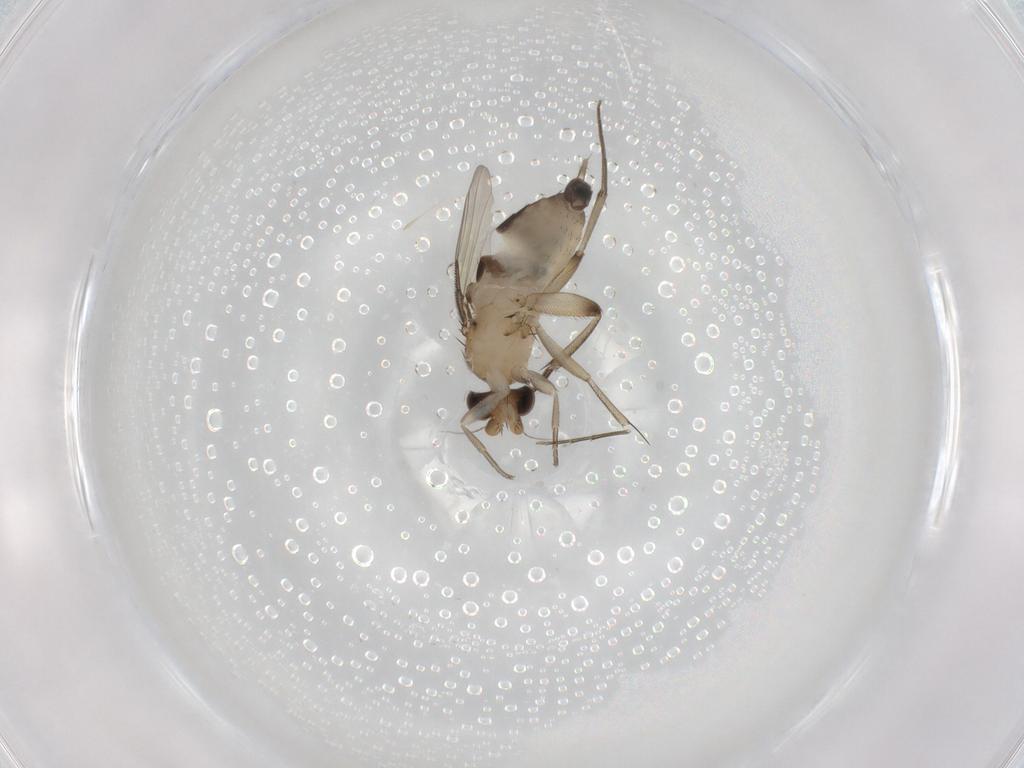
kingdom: Animalia
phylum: Arthropoda
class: Insecta
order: Diptera
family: Phoridae
